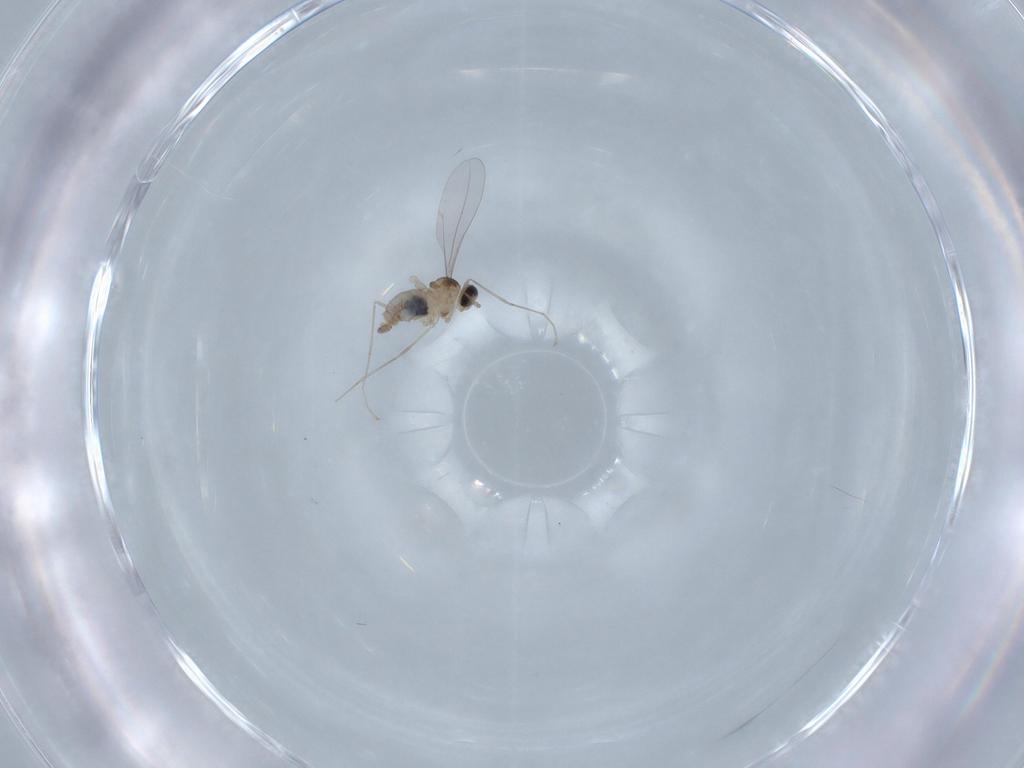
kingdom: Animalia
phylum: Arthropoda
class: Insecta
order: Diptera
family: Cecidomyiidae
